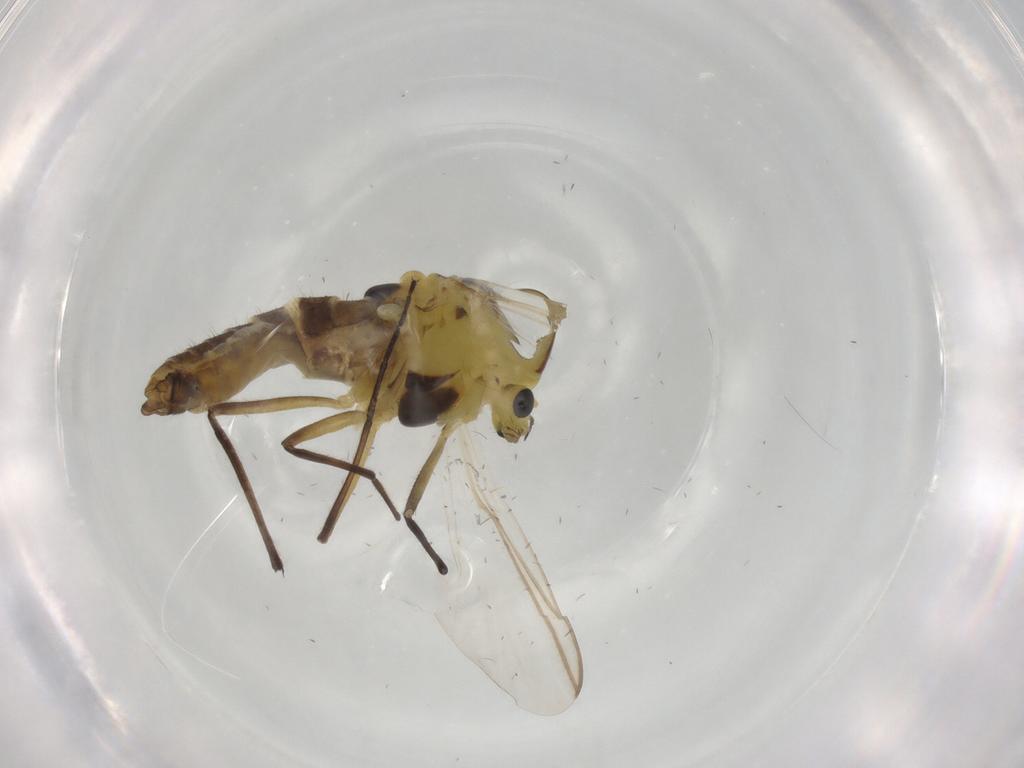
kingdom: Animalia
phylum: Arthropoda
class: Insecta
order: Diptera
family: Chironomidae
